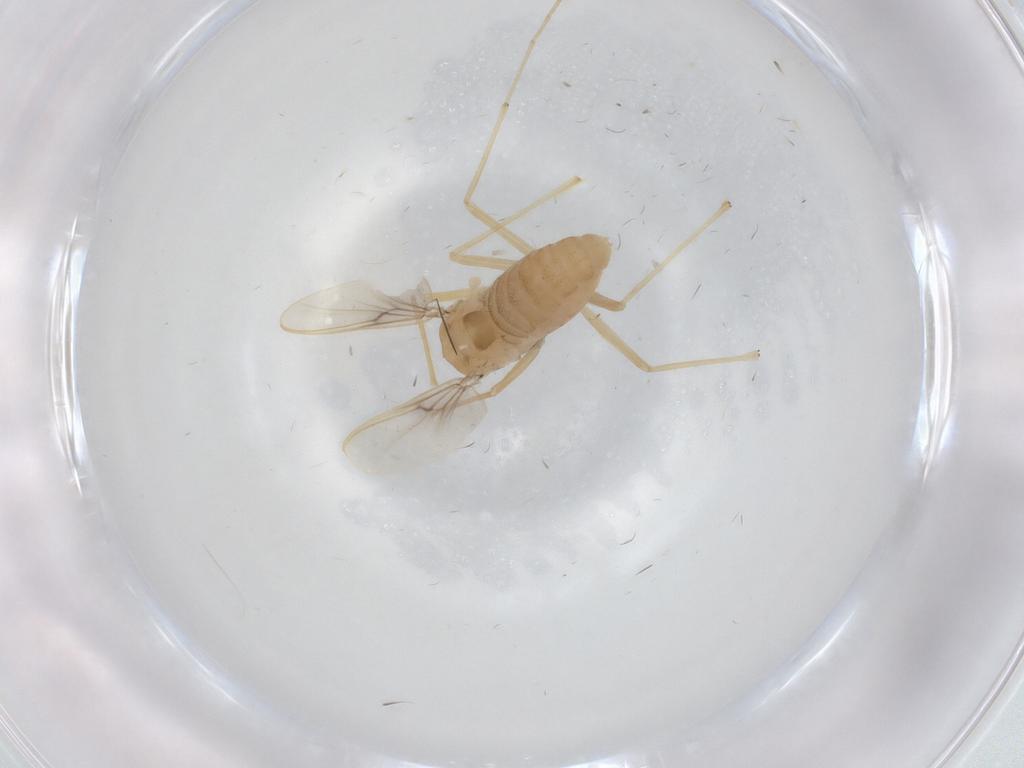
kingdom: Animalia
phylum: Arthropoda
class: Insecta
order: Diptera
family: Chironomidae
